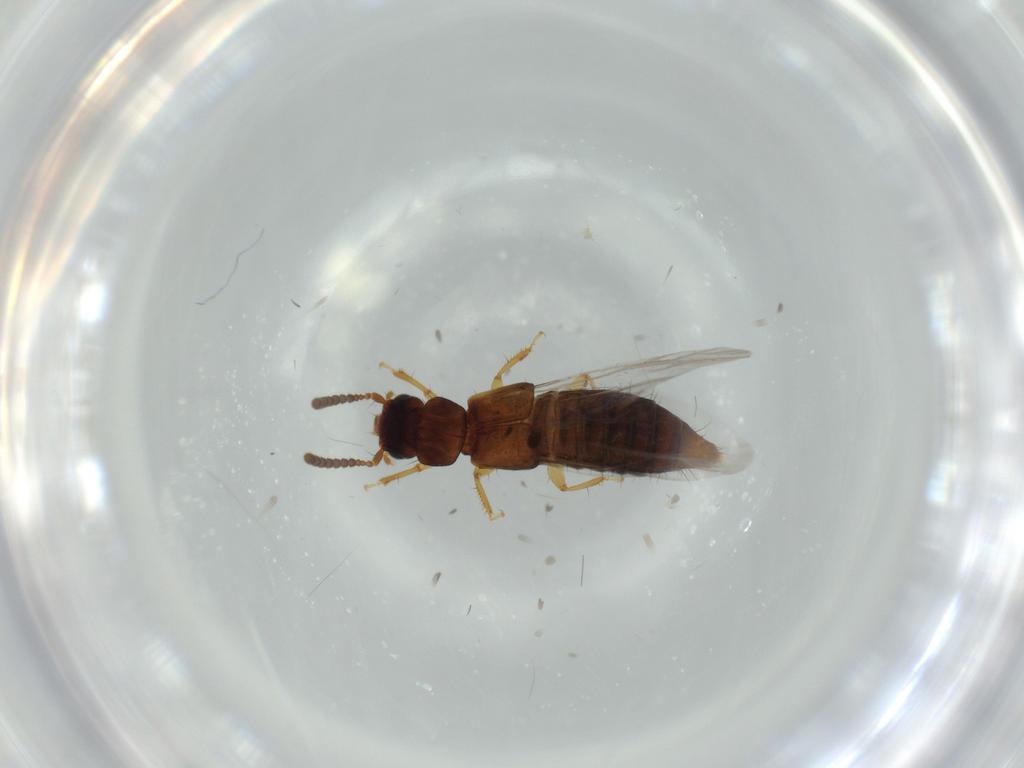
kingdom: Animalia
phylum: Arthropoda
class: Insecta
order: Coleoptera
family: Staphylinidae
